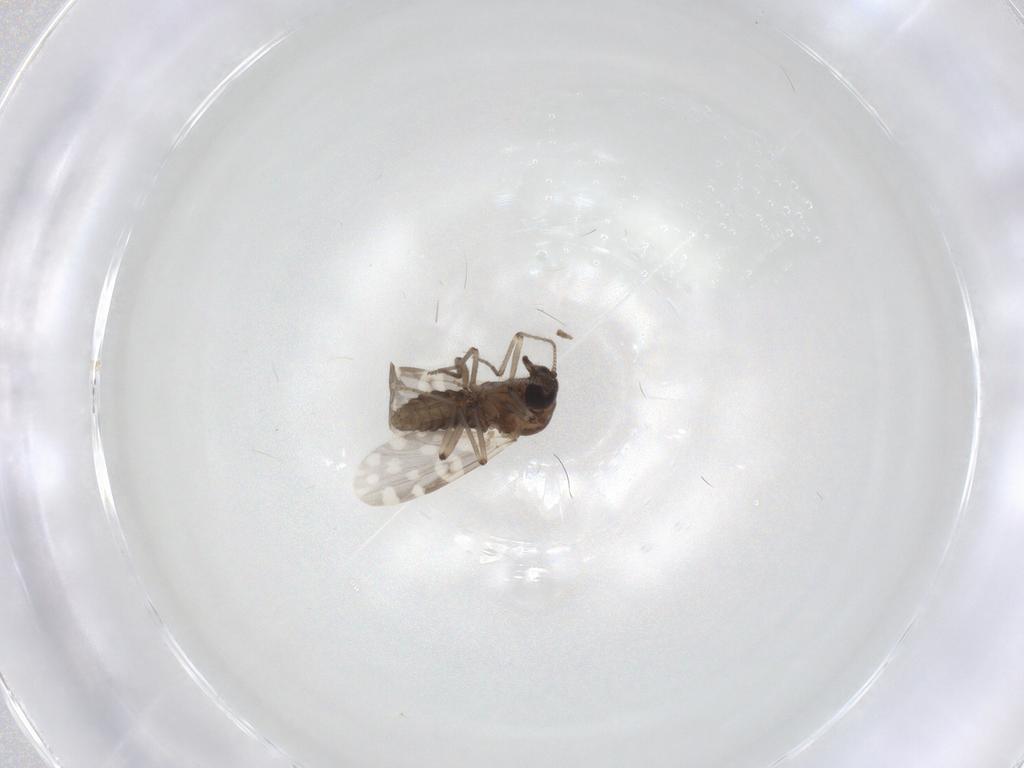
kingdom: Animalia
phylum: Arthropoda
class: Insecta
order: Diptera
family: Cecidomyiidae
